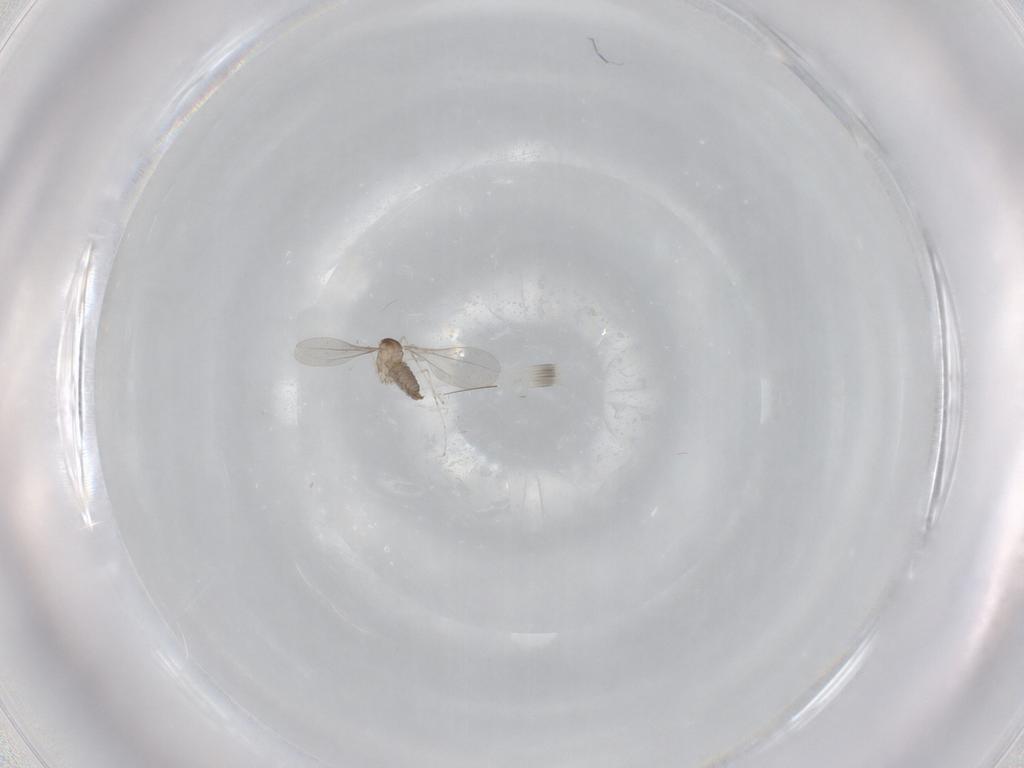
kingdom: Animalia
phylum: Arthropoda
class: Insecta
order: Diptera
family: Cecidomyiidae
